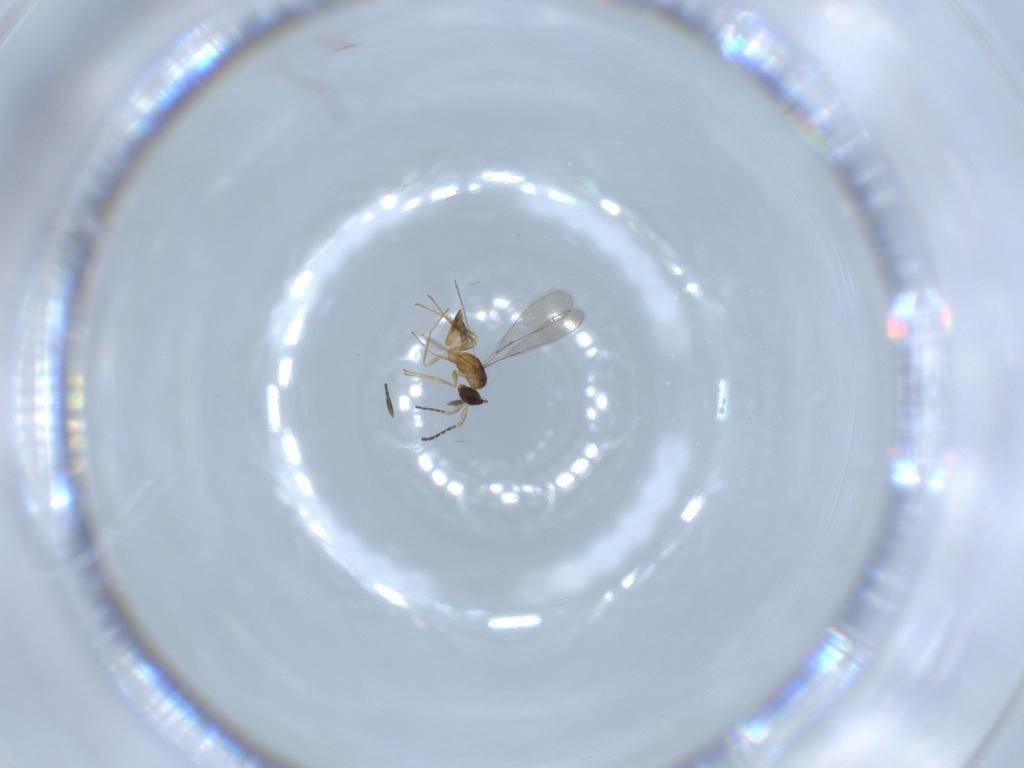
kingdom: Animalia
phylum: Arthropoda
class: Insecta
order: Hymenoptera
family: Mymaridae
